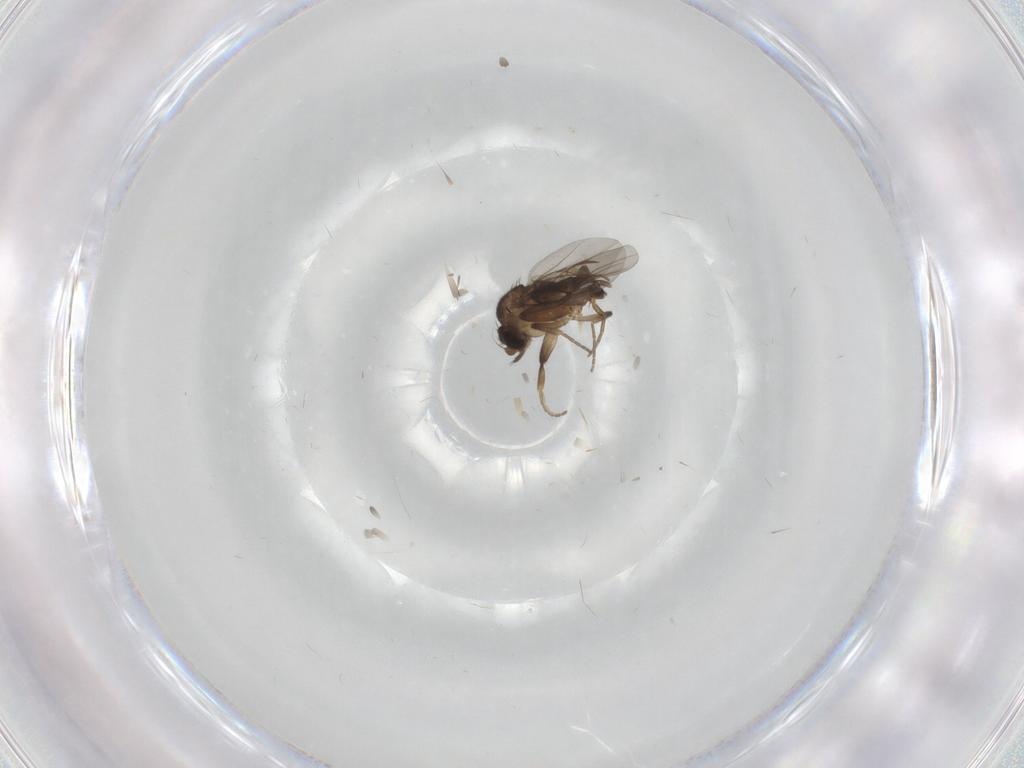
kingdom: Animalia
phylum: Arthropoda
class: Insecta
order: Diptera
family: Phoridae
